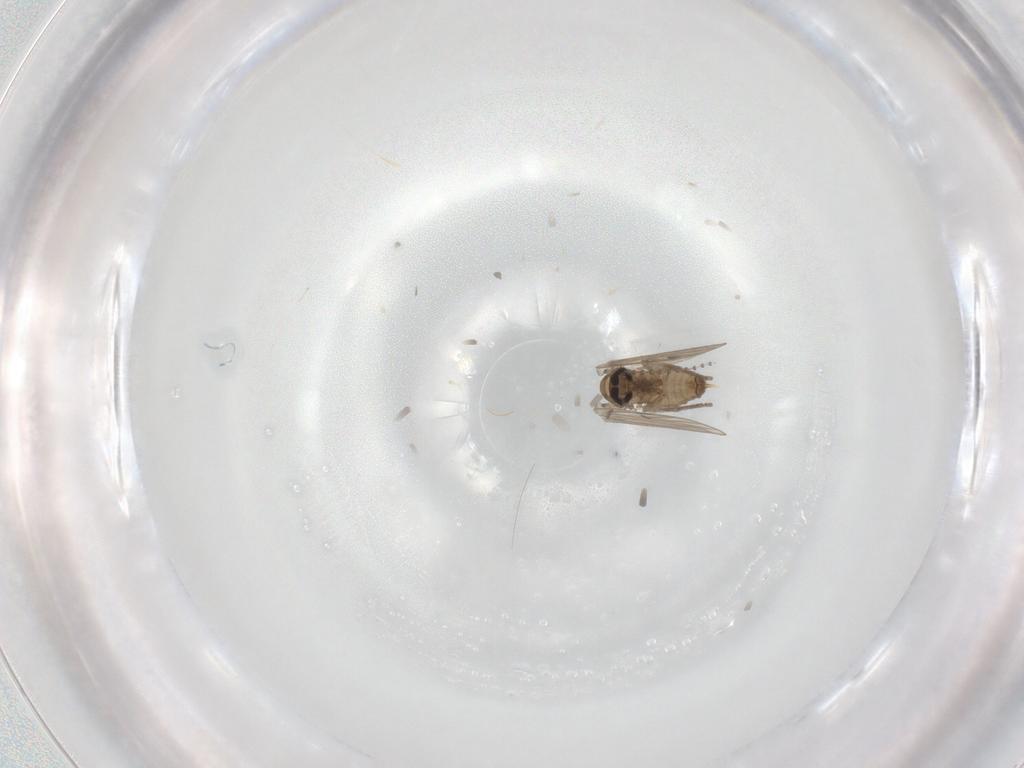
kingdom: Animalia
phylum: Arthropoda
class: Insecta
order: Diptera
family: Psychodidae
